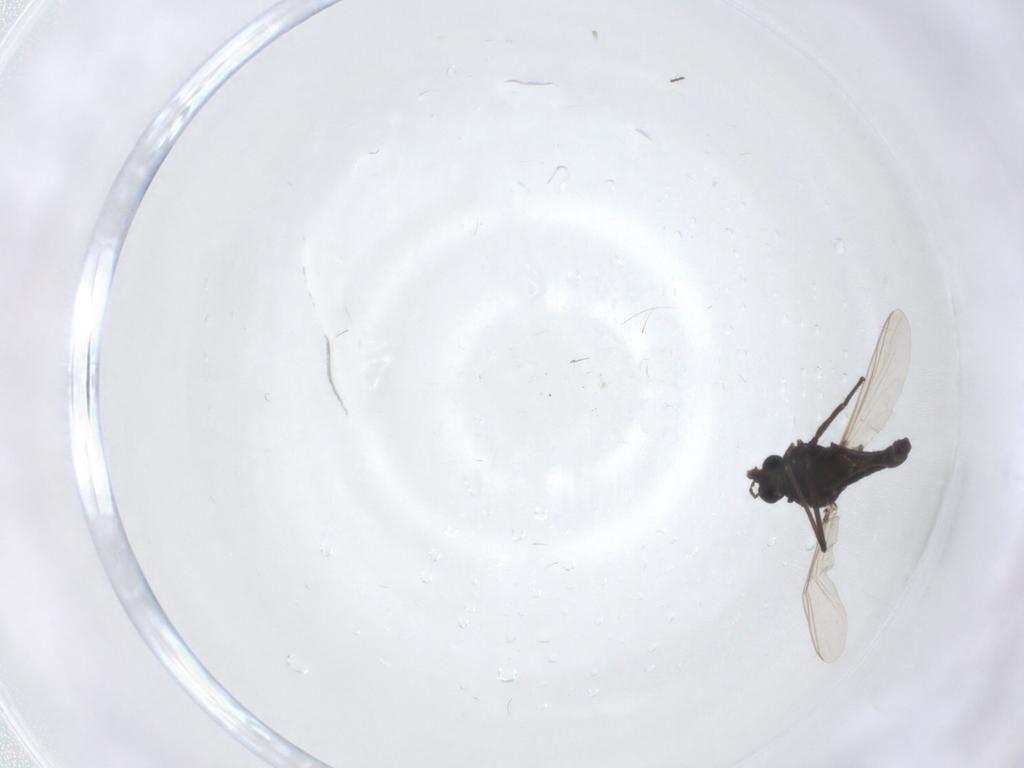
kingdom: Animalia
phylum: Arthropoda
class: Insecta
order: Diptera
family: Chironomidae
